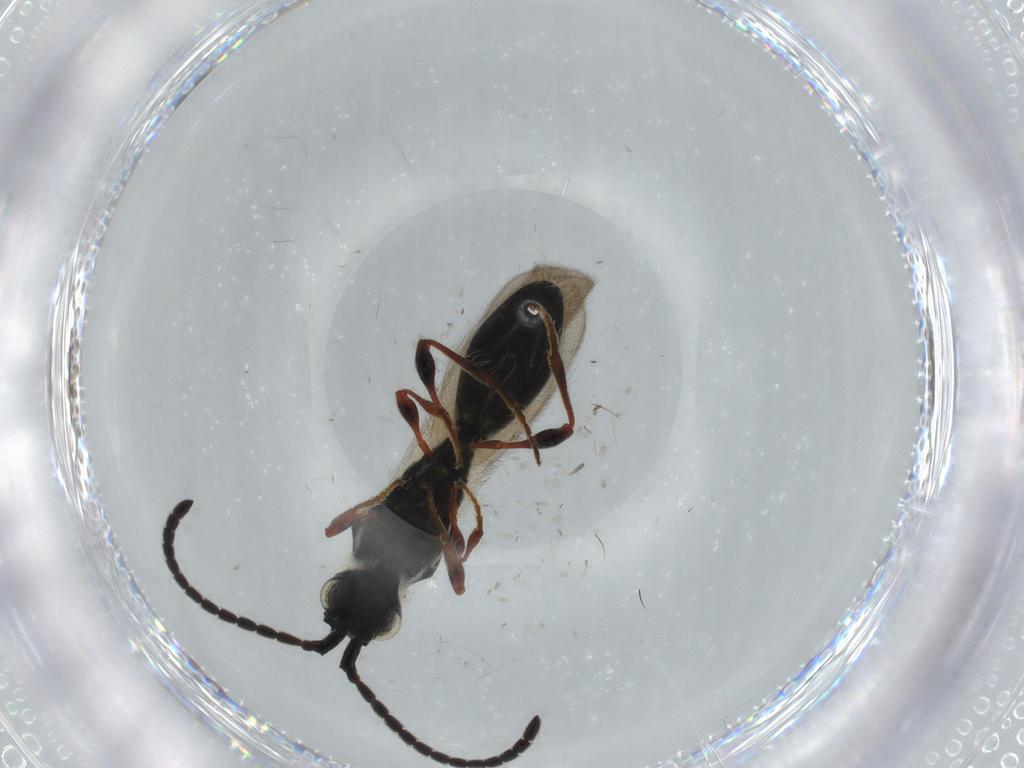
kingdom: Animalia
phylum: Arthropoda
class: Insecta
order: Hymenoptera
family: Diapriidae
